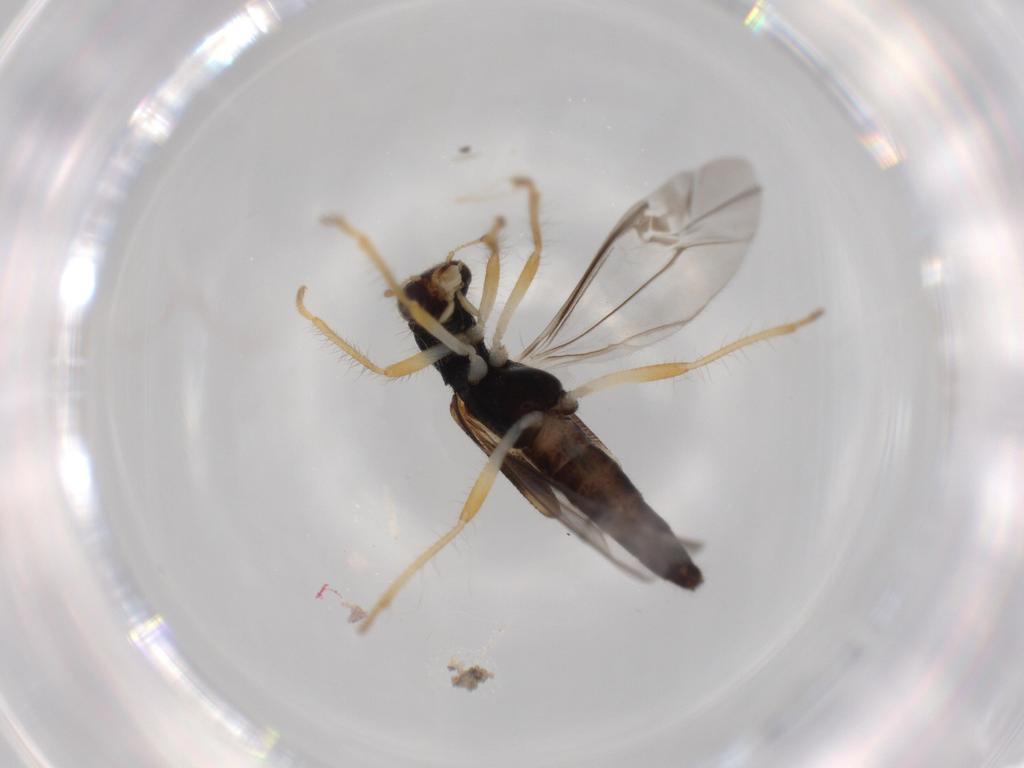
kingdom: Animalia
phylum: Arthropoda
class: Insecta
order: Coleoptera
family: Cleridae
